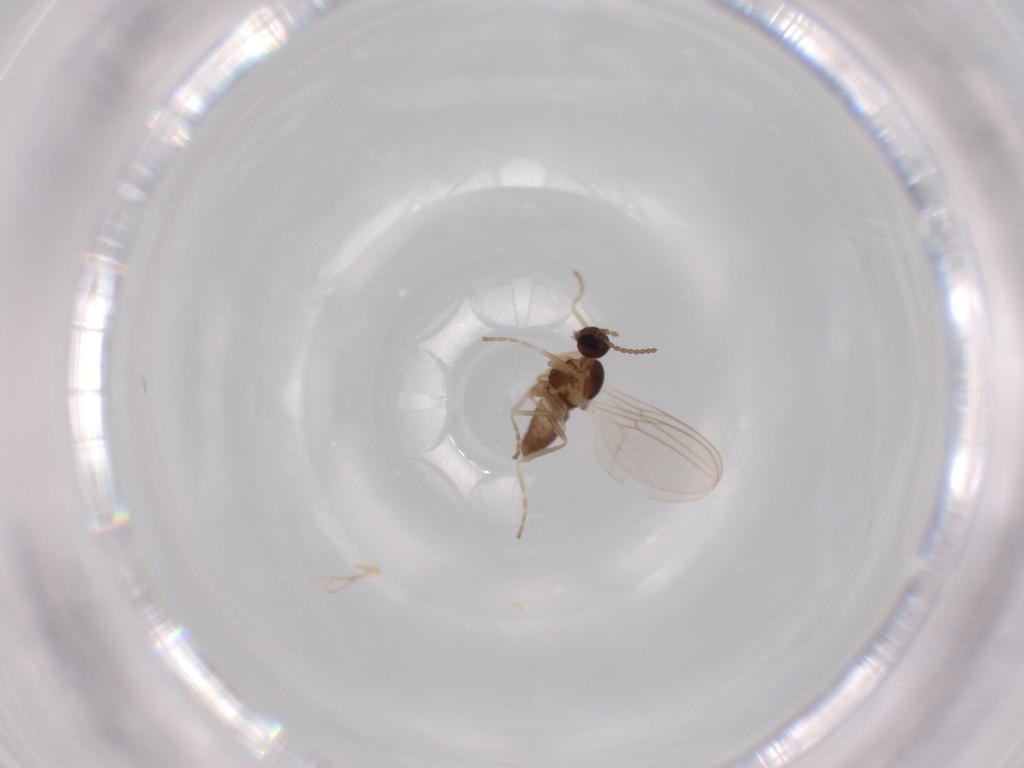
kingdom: Animalia
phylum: Arthropoda
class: Insecta
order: Diptera
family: Cecidomyiidae
